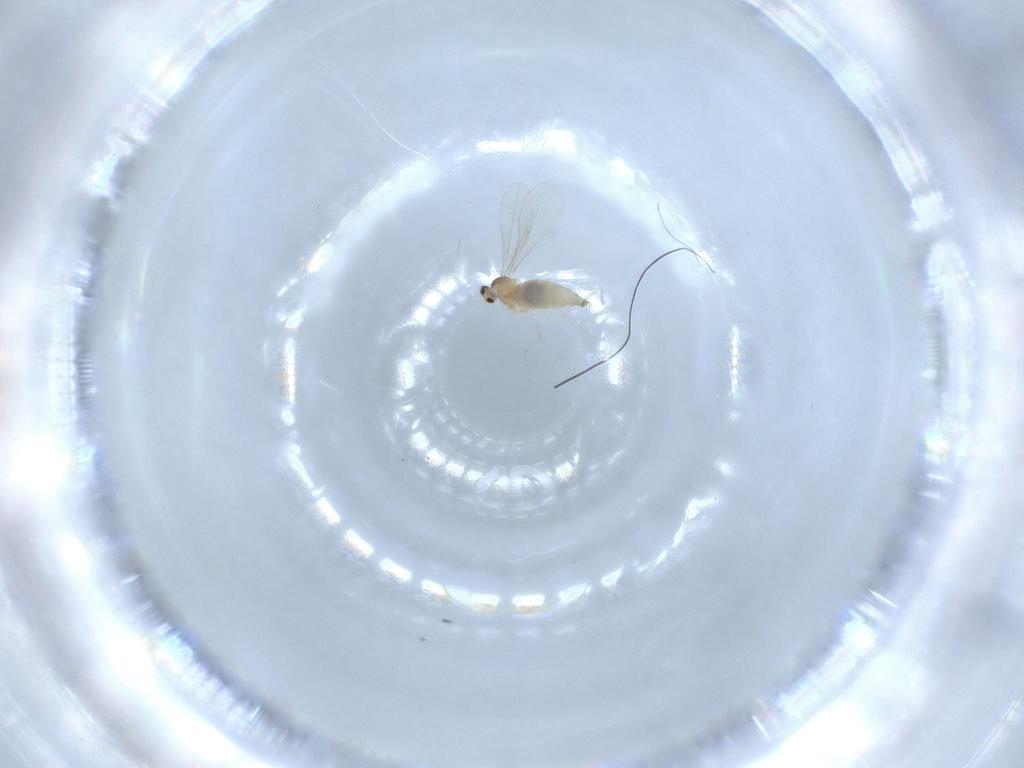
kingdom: Animalia
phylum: Arthropoda
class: Insecta
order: Diptera
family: Cecidomyiidae
